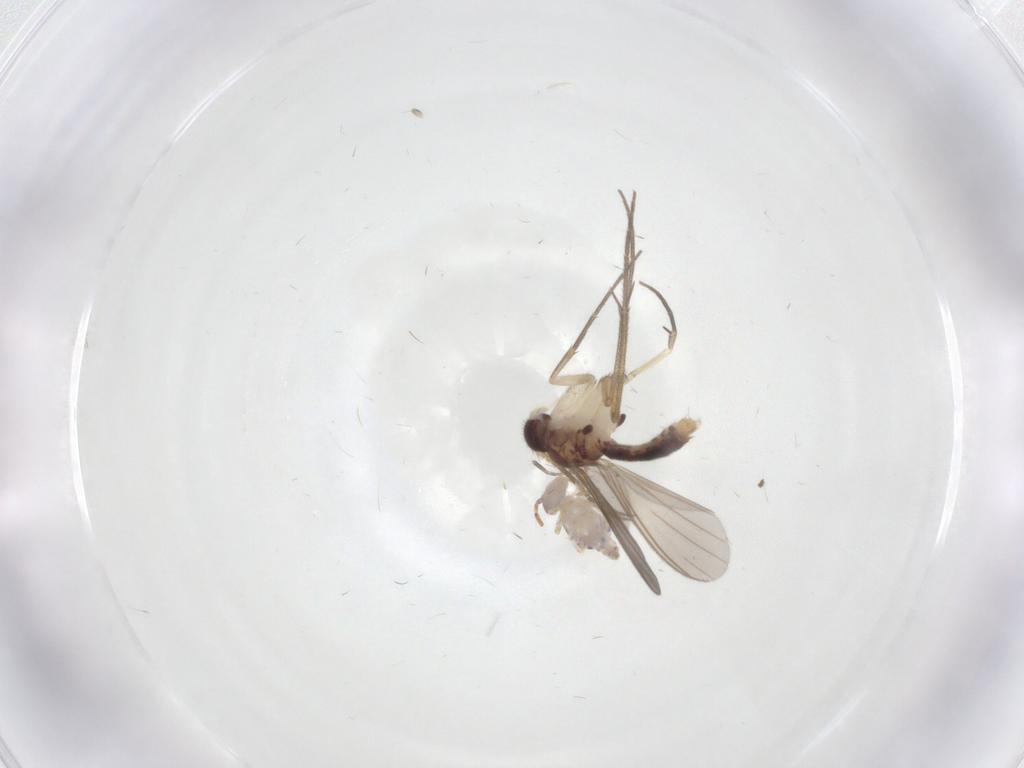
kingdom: Animalia
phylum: Arthropoda
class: Insecta
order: Diptera
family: Mycetophilidae
